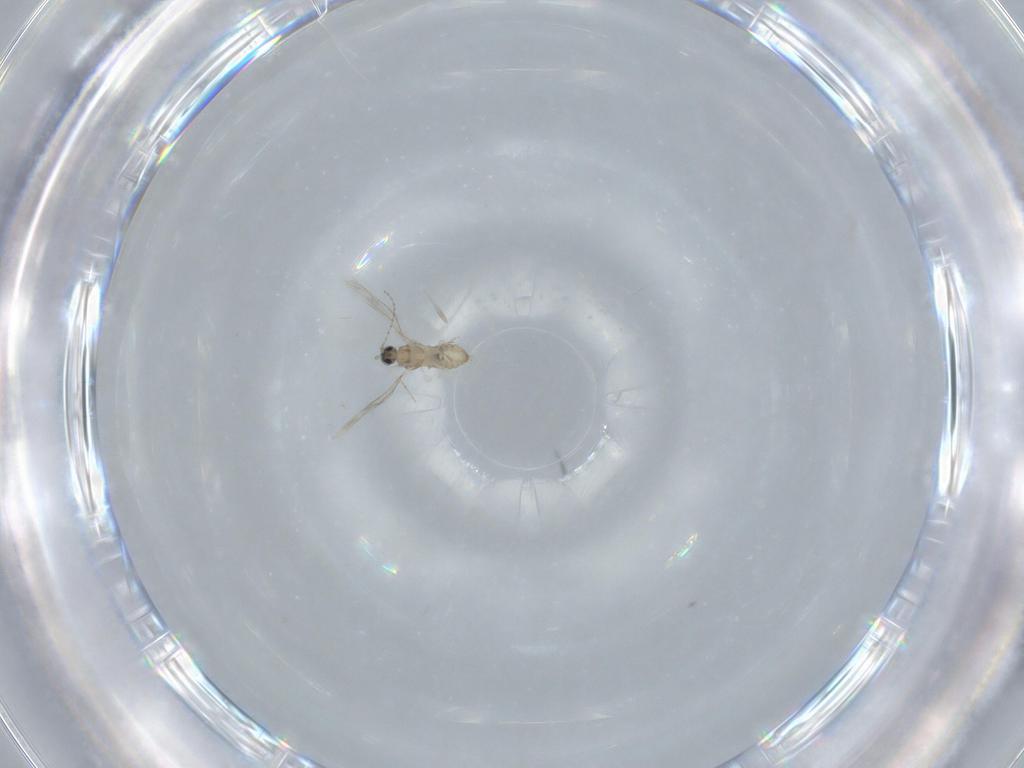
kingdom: Animalia
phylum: Arthropoda
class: Insecta
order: Diptera
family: Cecidomyiidae
